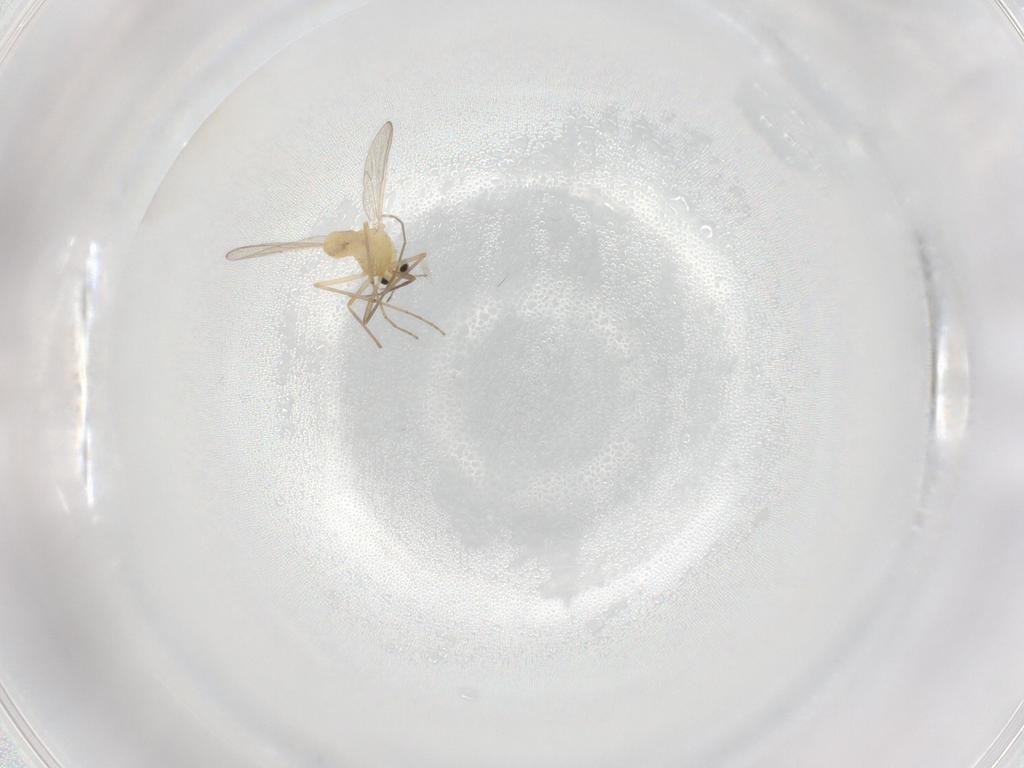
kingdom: Animalia
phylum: Arthropoda
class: Insecta
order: Diptera
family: Chironomidae
